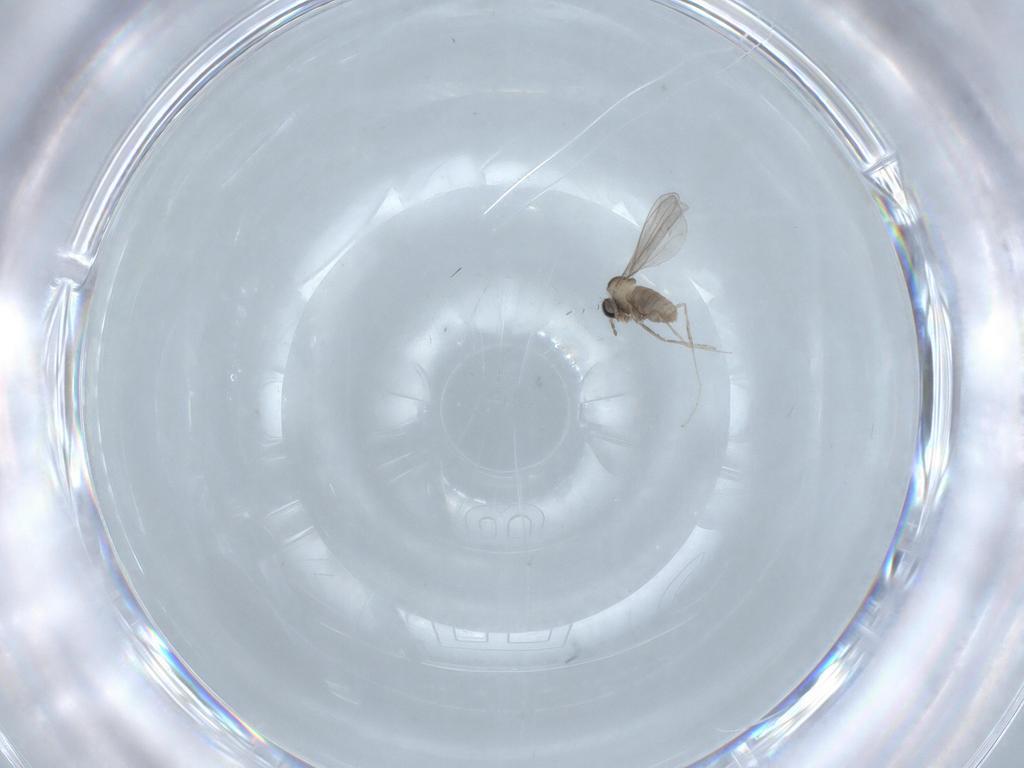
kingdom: Animalia
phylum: Arthropoda
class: Insecta
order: Diptera
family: Cecidomyiidae
